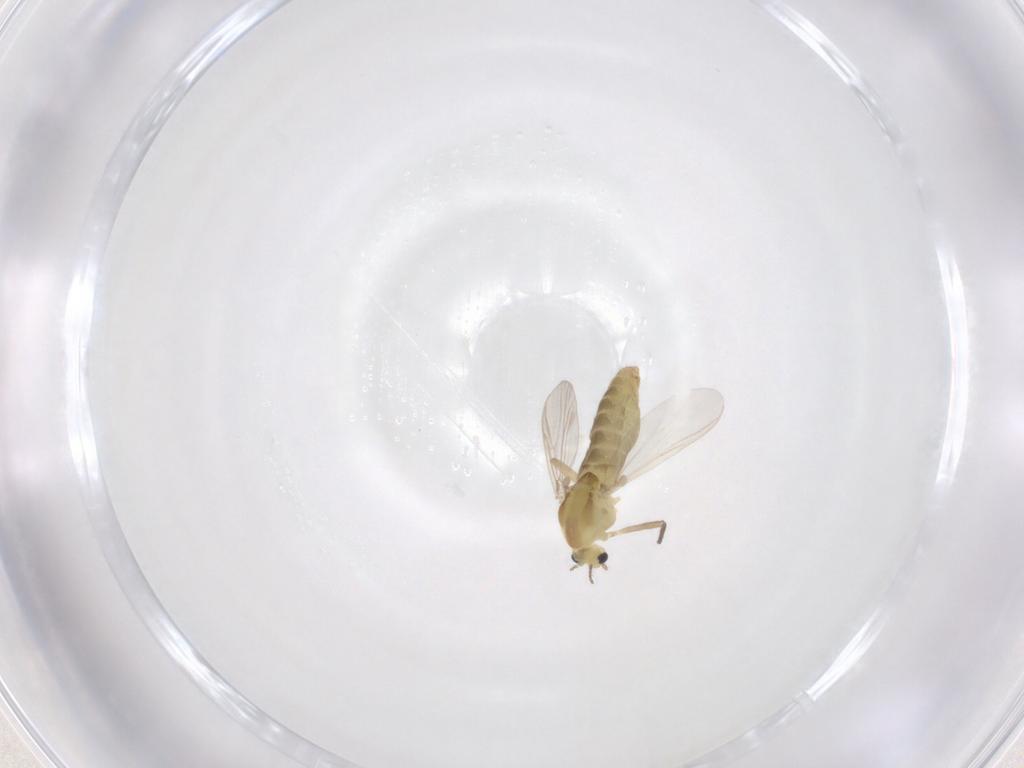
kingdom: Animalia
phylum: Arthropoda
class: Insecta
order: Diptera
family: Chironomidae
